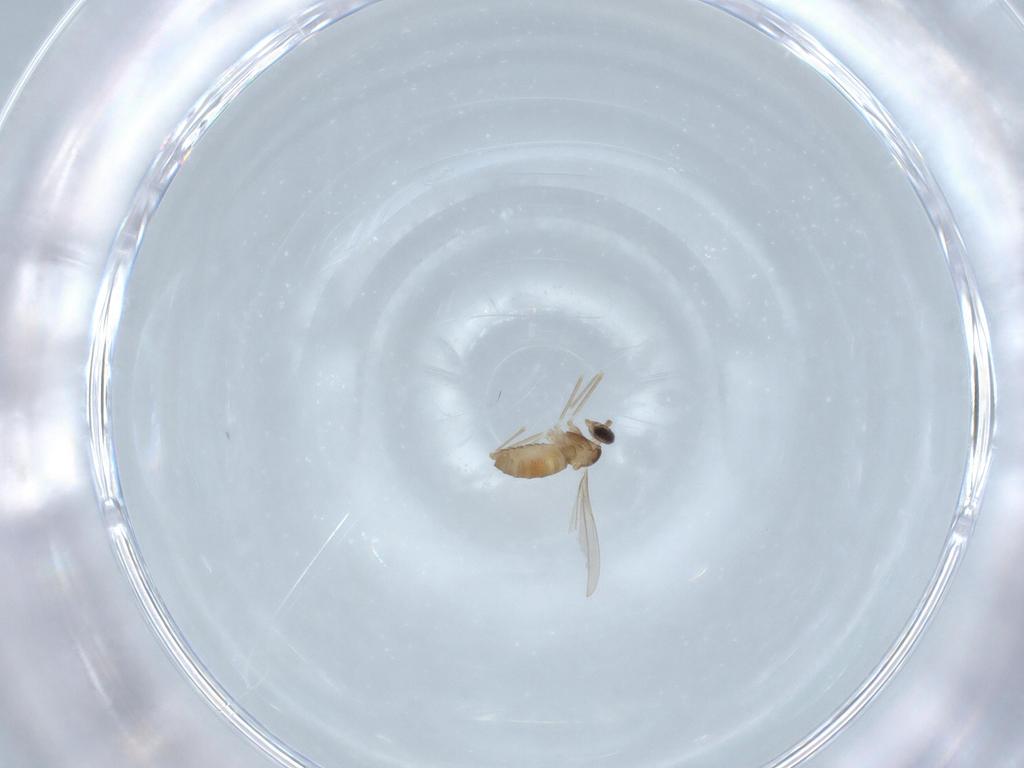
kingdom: Animalia
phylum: Arthropoda
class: Insecta
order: Diptera
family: Cecidomyiidae
